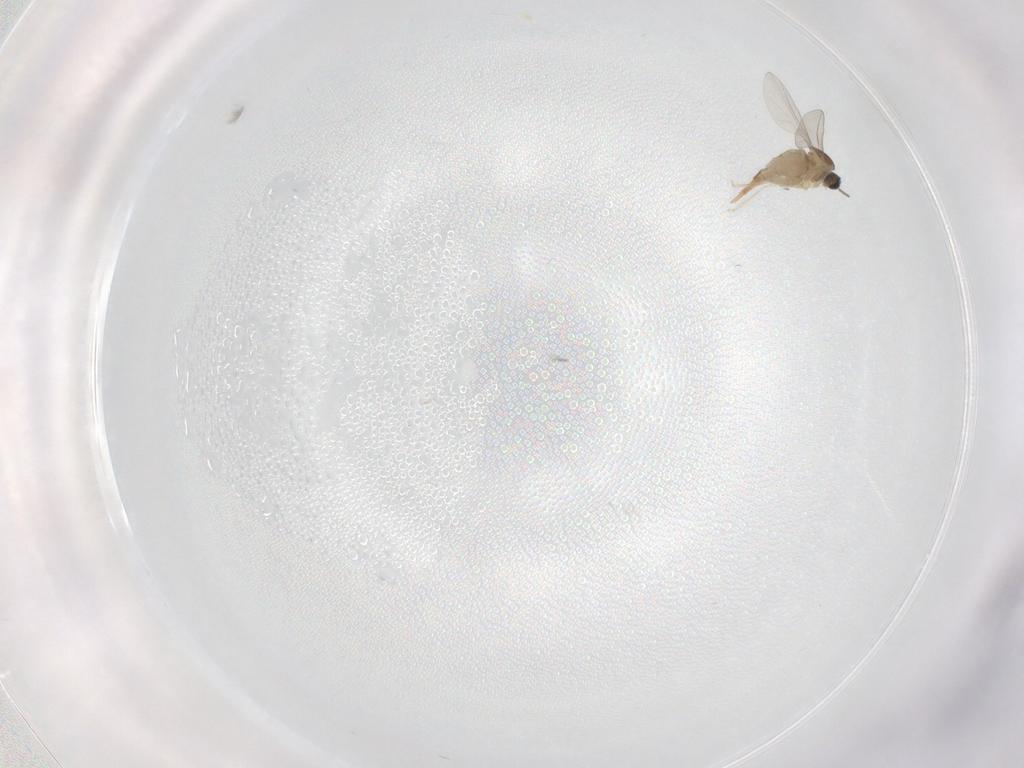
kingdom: Animalia
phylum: Arthropoda
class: Insecta
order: Diptera
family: Cecidomyiidae
